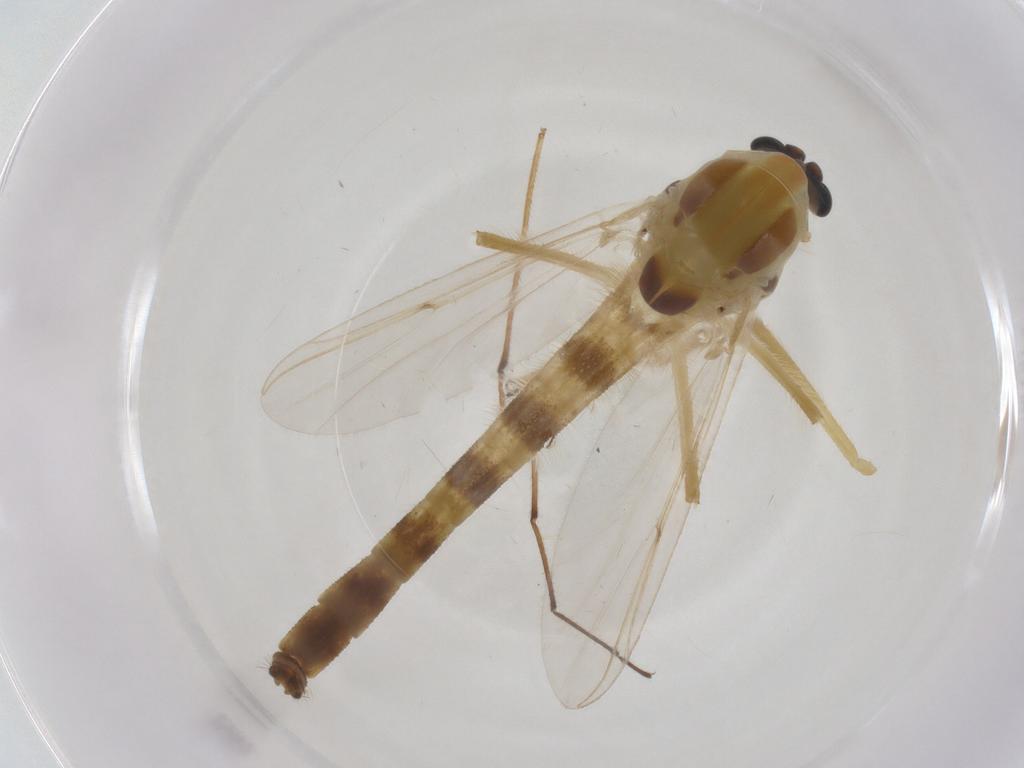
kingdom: Animalia
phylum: Arthropoda
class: Insecta
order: Diptera
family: Chironomidae
